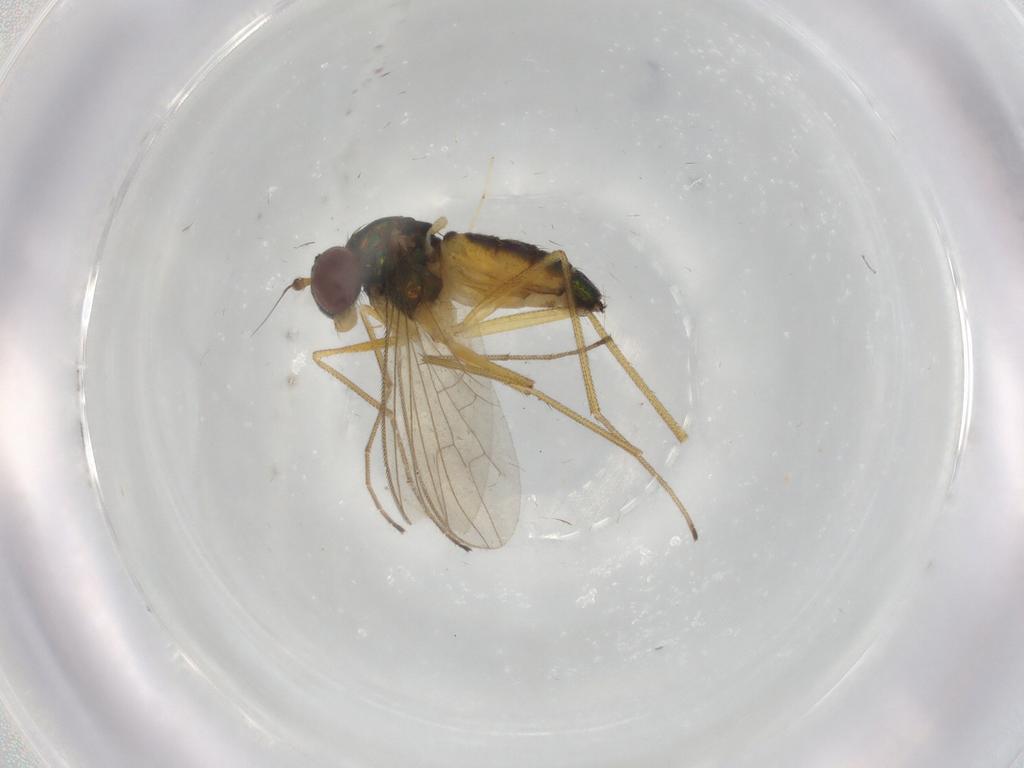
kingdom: Animalia
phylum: Arthropoda
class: Insecta
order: Diptera
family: Dolichopodidae
